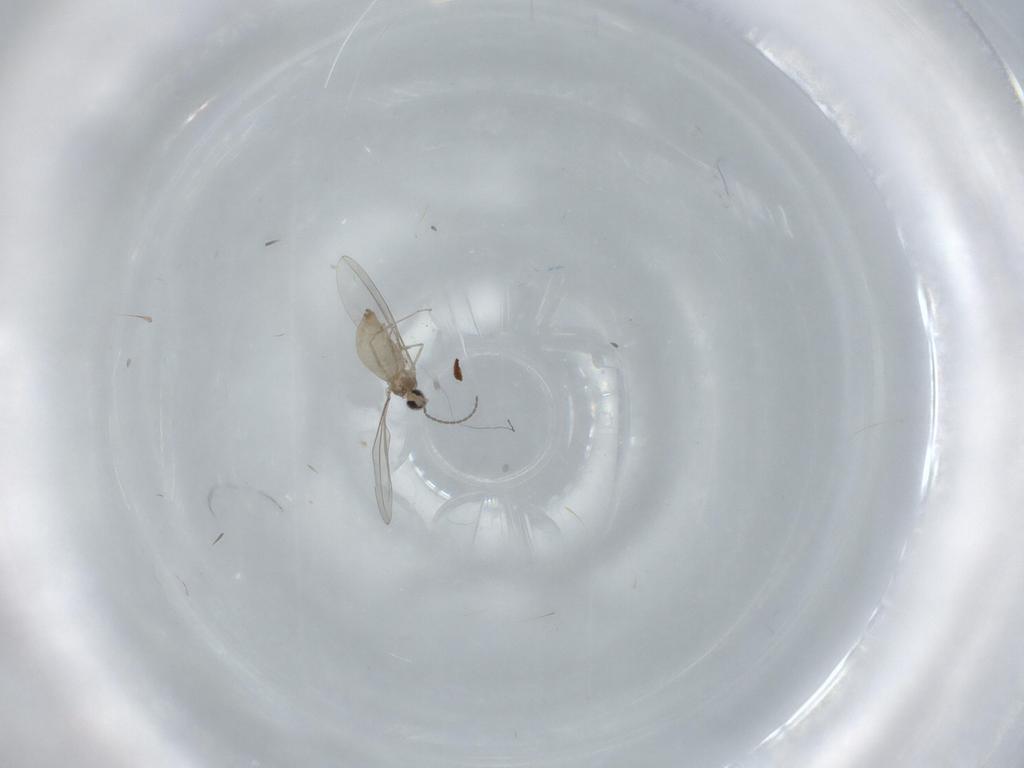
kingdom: Animalia
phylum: Arthropoda
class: Insecta
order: Diptera
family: Cecidomyiidae
